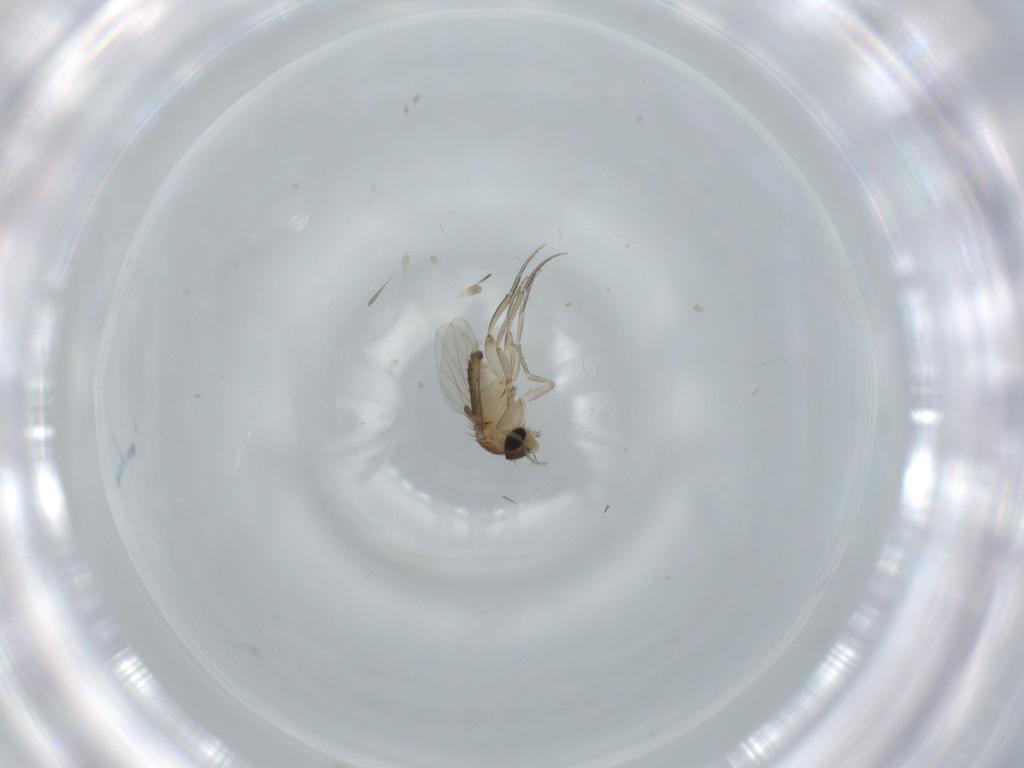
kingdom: Animalia
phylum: Arthropoda
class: Insecta
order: Diptera
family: Sciaridae
